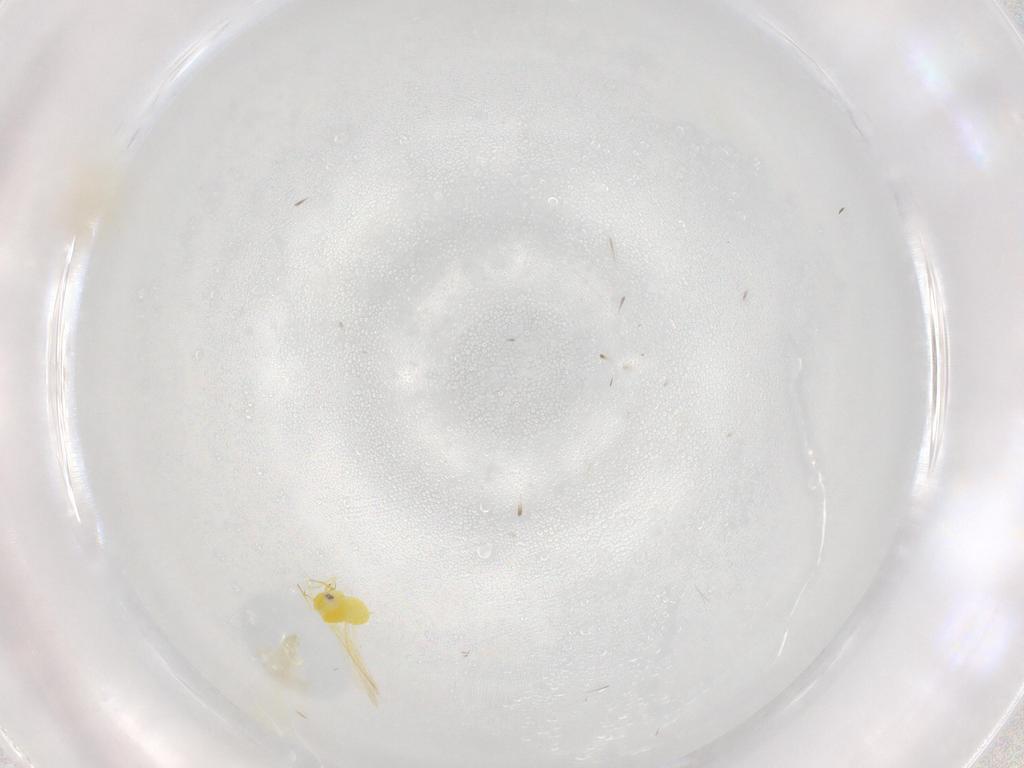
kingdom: Animalia
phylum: Arthropoda
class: Insecta
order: Hemiptera
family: Aleyrodidae
